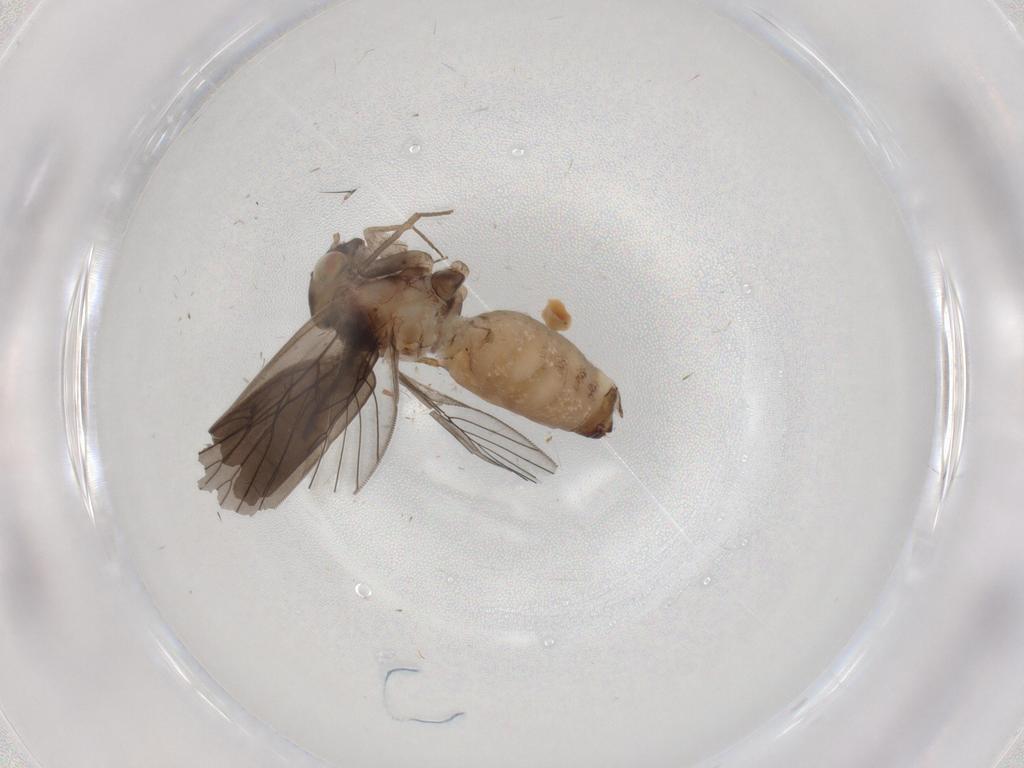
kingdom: Animalia
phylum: Arthropoda
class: Insecta
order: Psocodea
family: Lepidopsocidae
